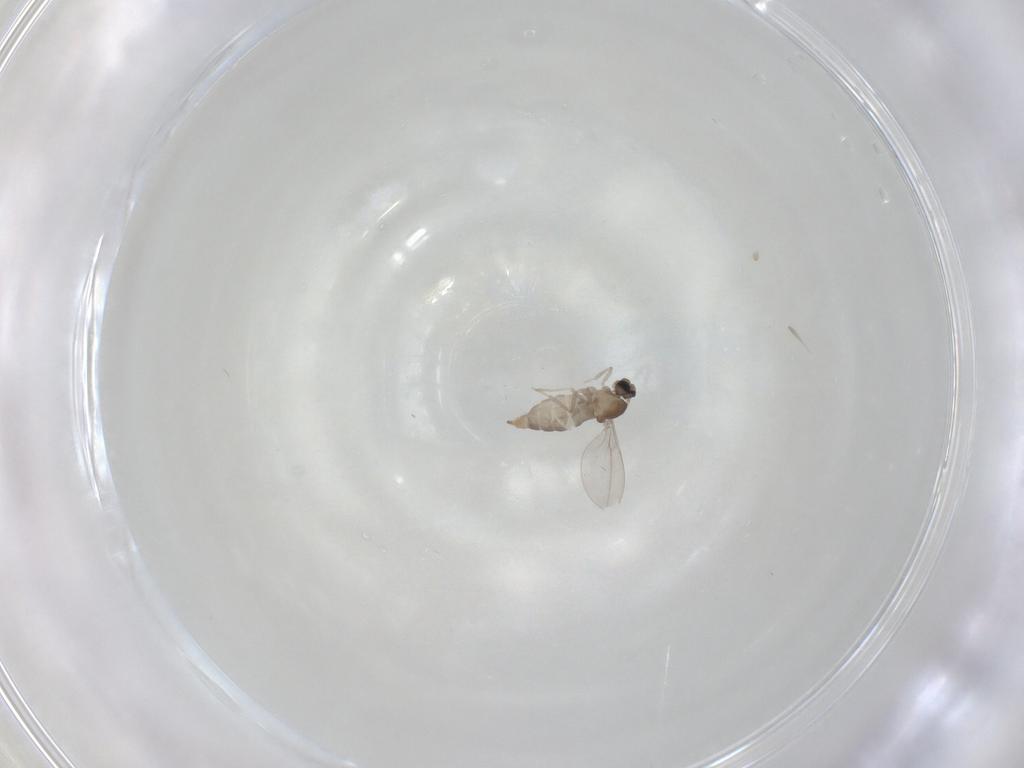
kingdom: Animalia
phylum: Arthropoda
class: Insecta
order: Diptera
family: Cecidomyiidae
